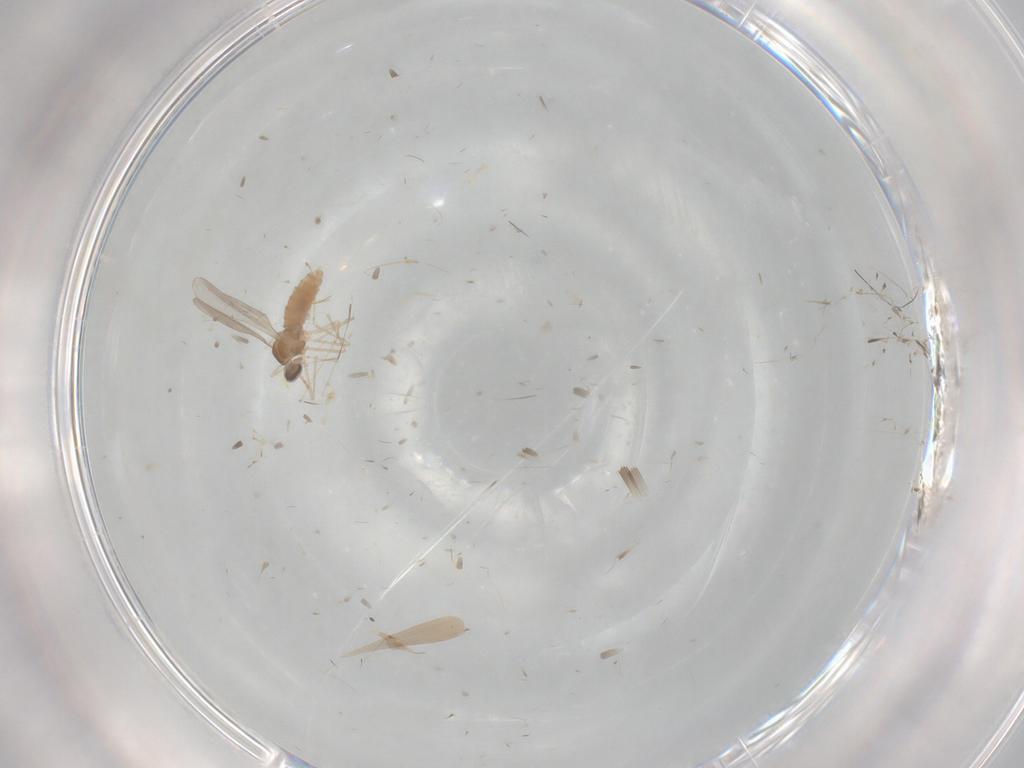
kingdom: Animalia
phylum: Arthropoda
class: Insecta
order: Diptera
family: Cecidomyiidae
